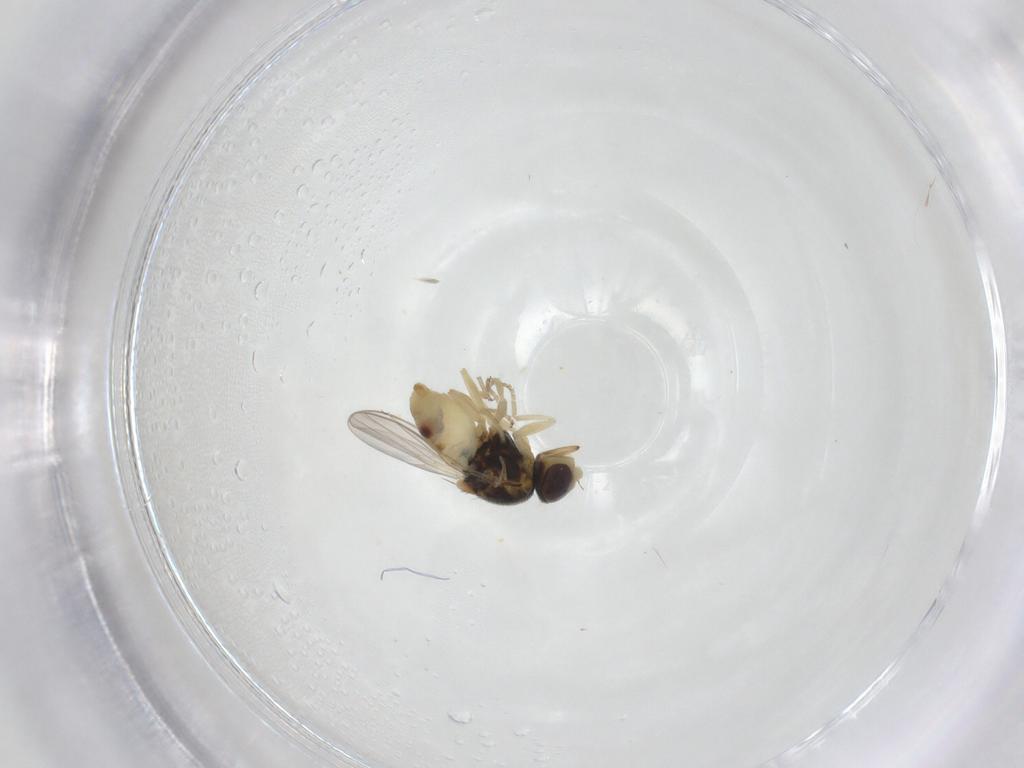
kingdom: Animalia
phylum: Arthropoda
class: Insecta
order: Diptera
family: Chloropidae
